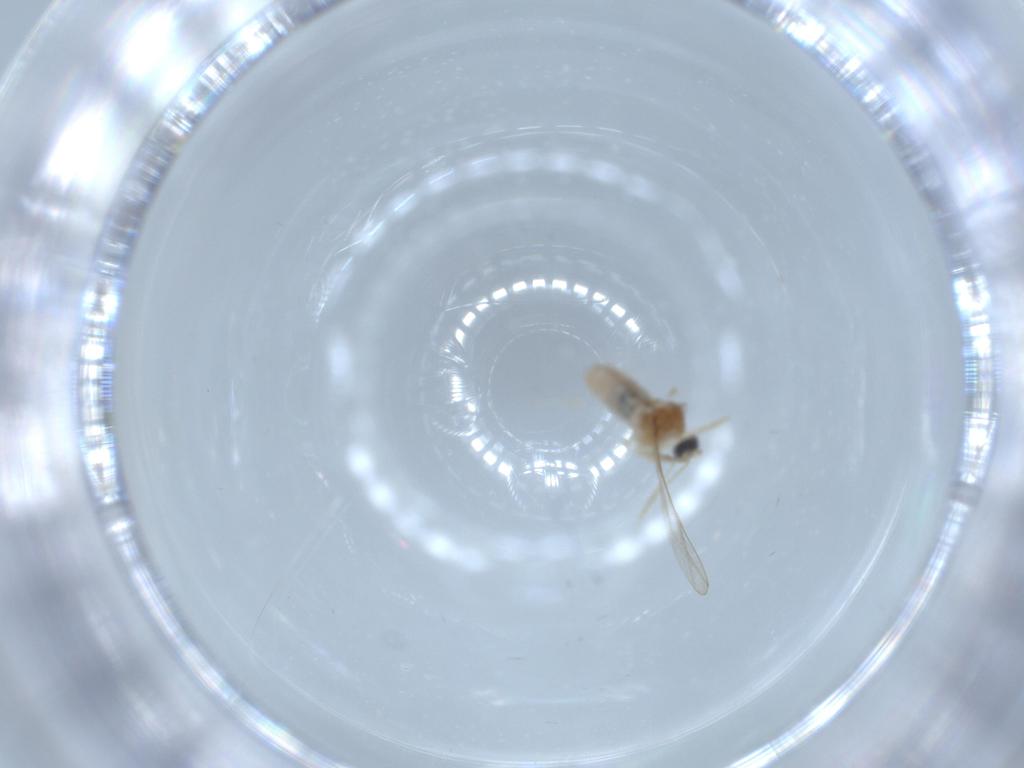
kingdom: Animalia
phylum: Arthropoda
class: Insecta
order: Diptera
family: Cecidomyiidae
